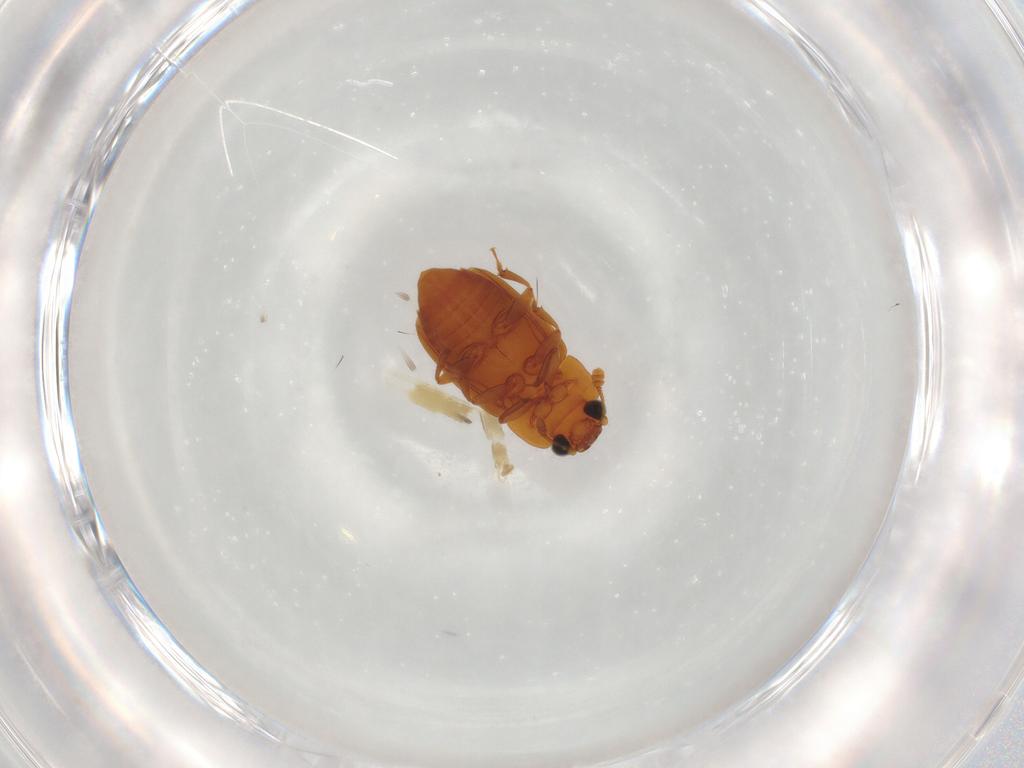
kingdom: Animalia
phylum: Arthropoda
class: Insecta
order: Coleoptera
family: Nitidulidae
